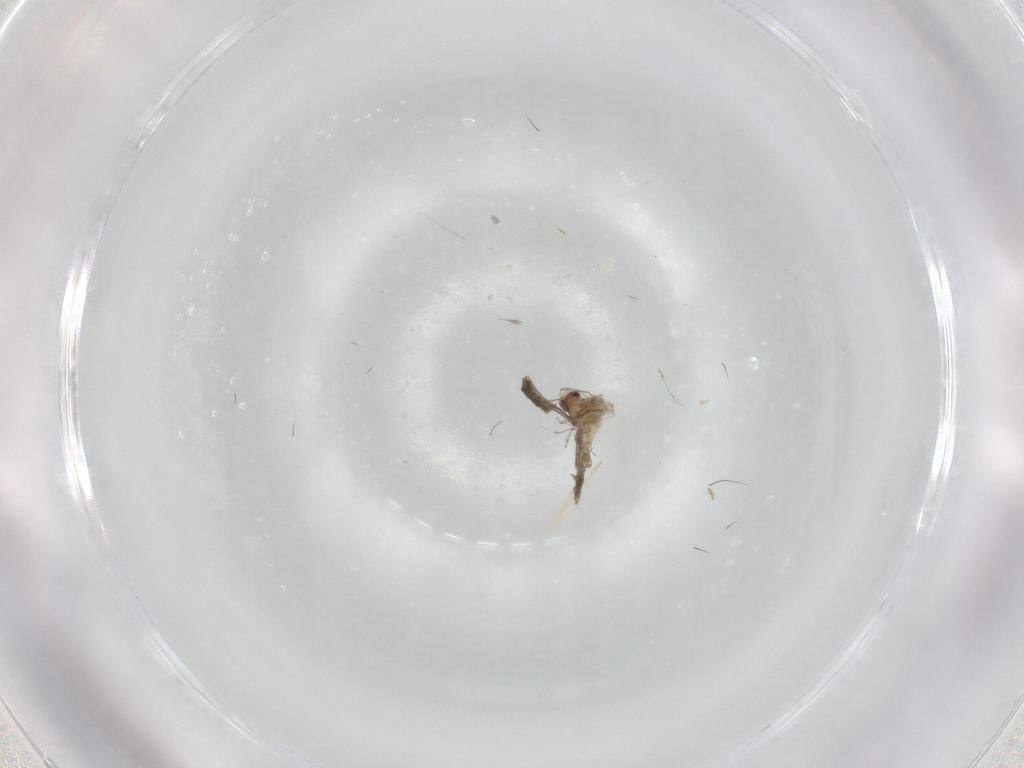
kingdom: Animalia
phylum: Arthropoda
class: Insecta
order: Diptera
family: Cecidomyiidae
